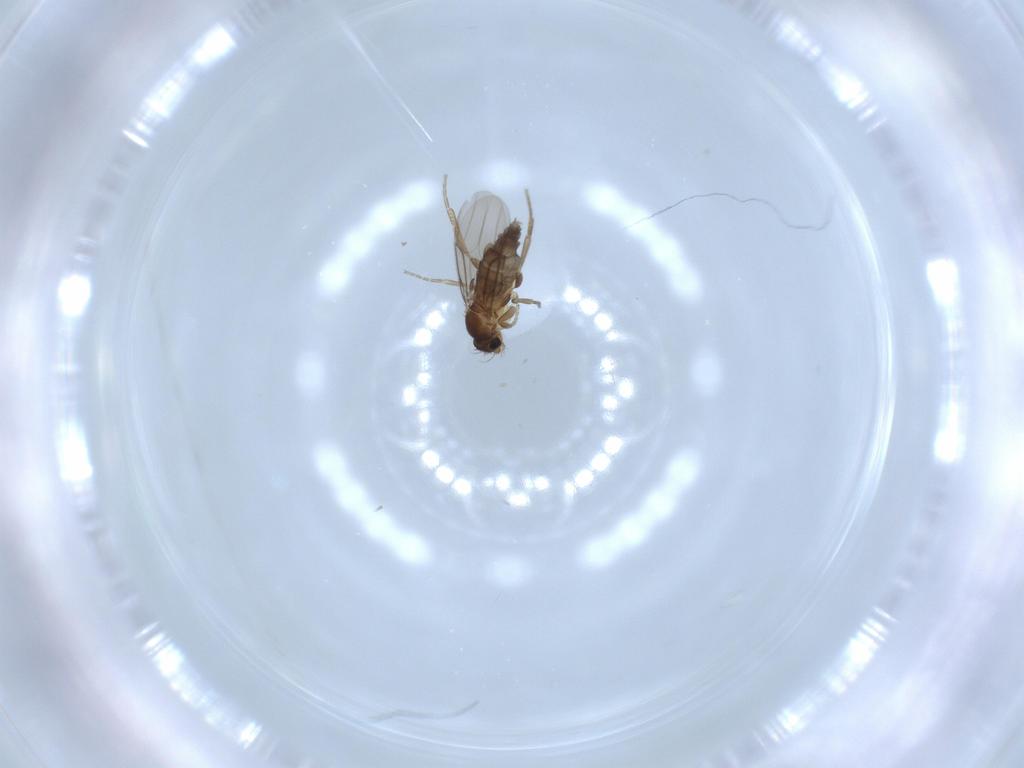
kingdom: Animalia
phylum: Arthropoda
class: Insecta
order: Diptera
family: Phoridae
